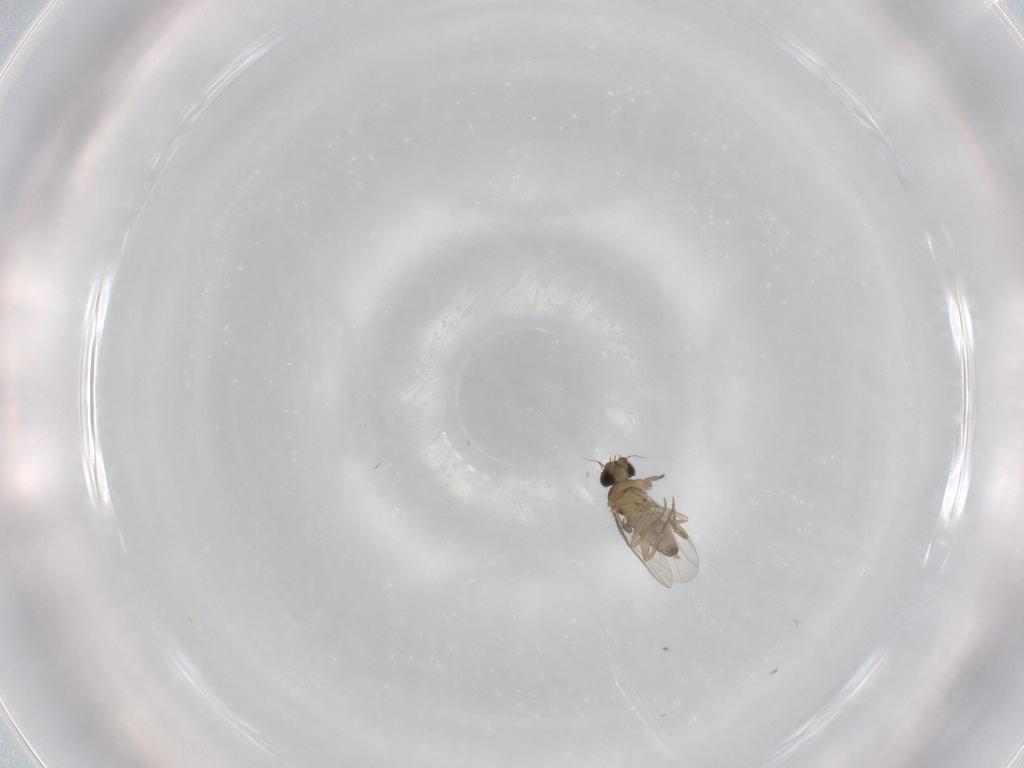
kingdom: Animalia
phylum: Arthropoda
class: Insecta
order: Diptera
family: Phoridae
